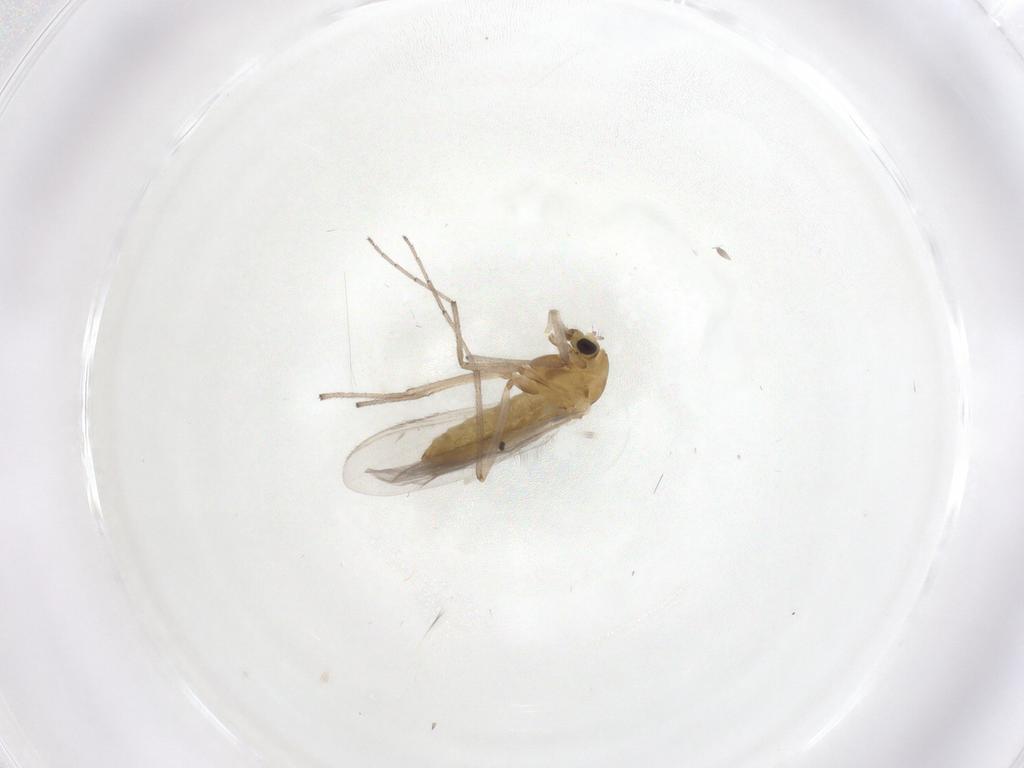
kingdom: Animalia
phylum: Arthropoda
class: Insecta
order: Diptera
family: Chironomidae
